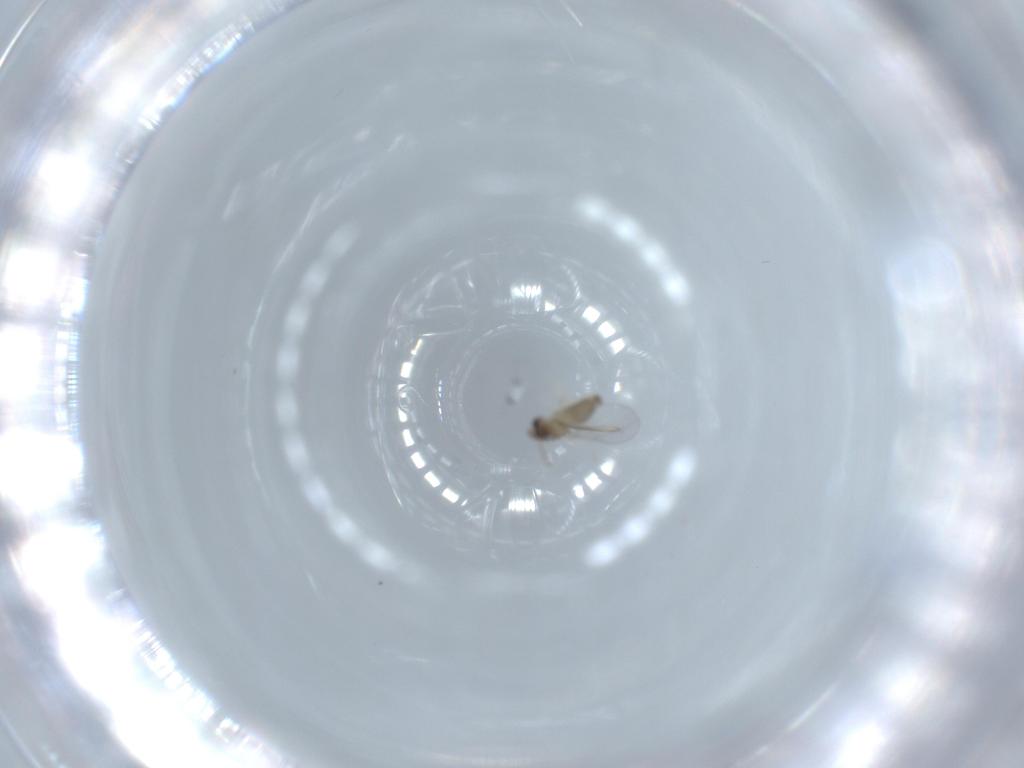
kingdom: Animalia
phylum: Arthropoda
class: Insecta
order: Diptera
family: Cecidomyiidae
